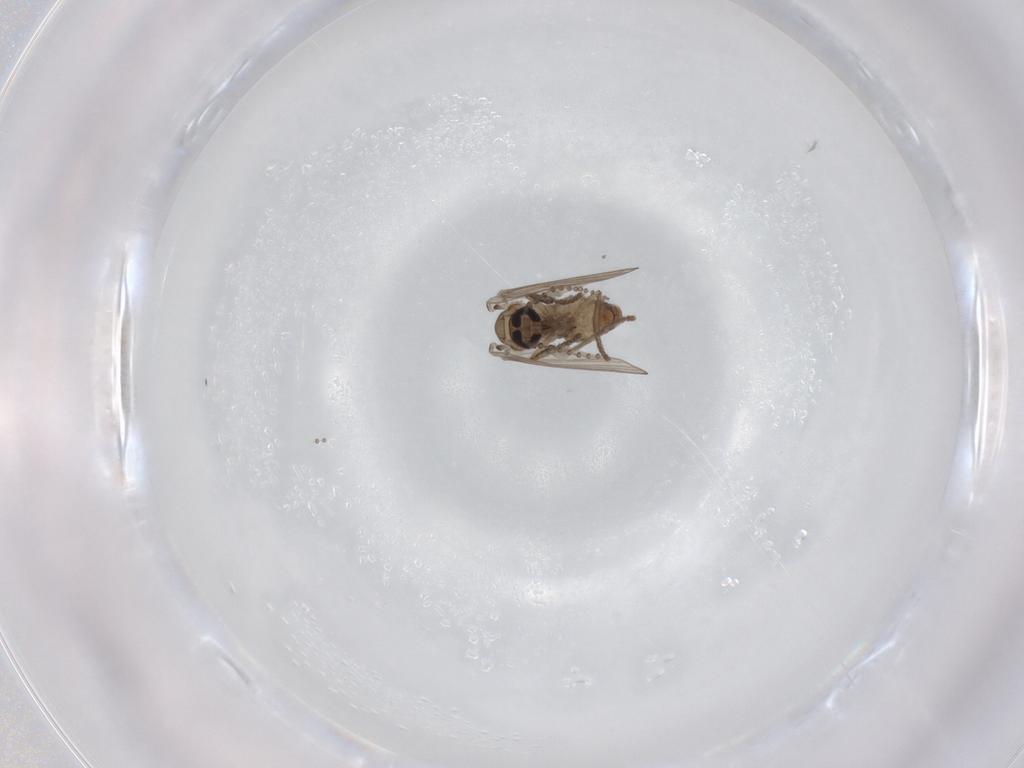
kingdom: Animalia
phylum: Arthropoda
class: Insecta
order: Diptera
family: Psychodidae
